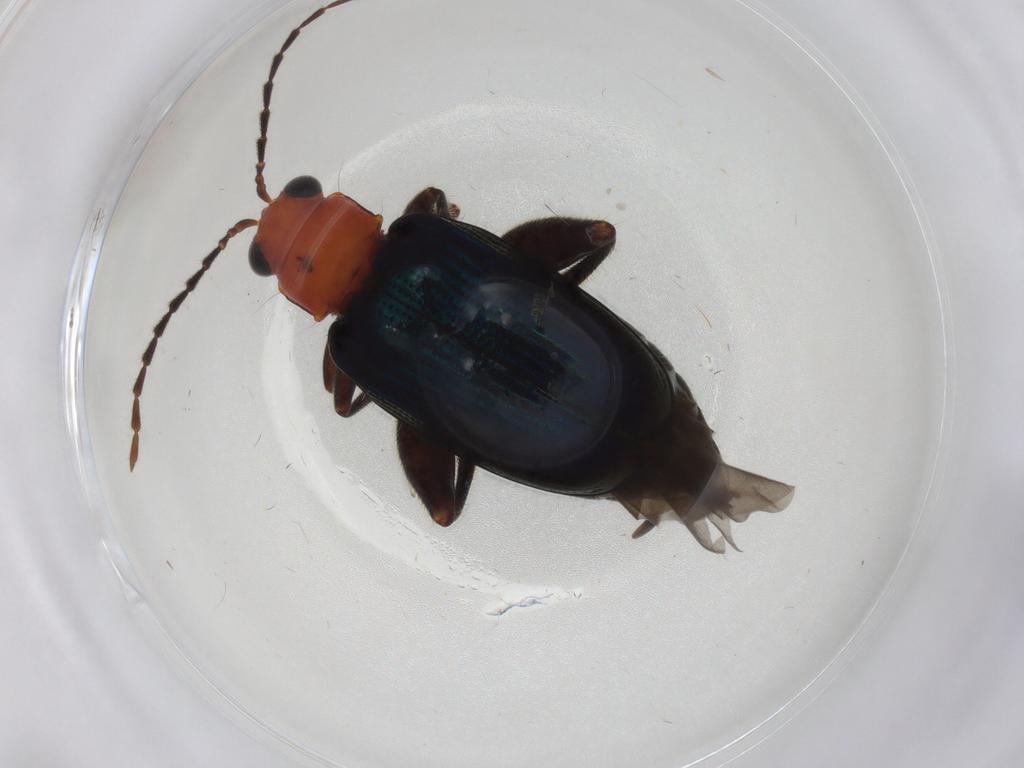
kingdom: Animalia
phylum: Arthropoda
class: Insecta
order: Coleoptera
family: Chrysomelidae
